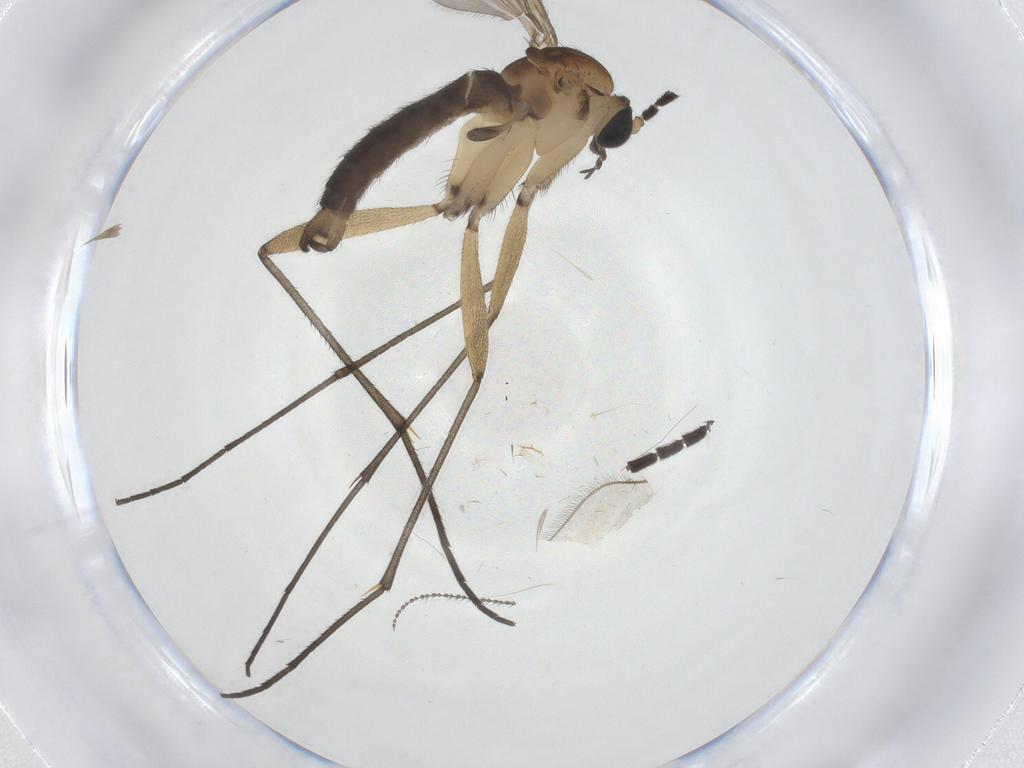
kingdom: Animalia
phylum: Arthropoda
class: Insecta
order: Diptera
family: Sciaridae
